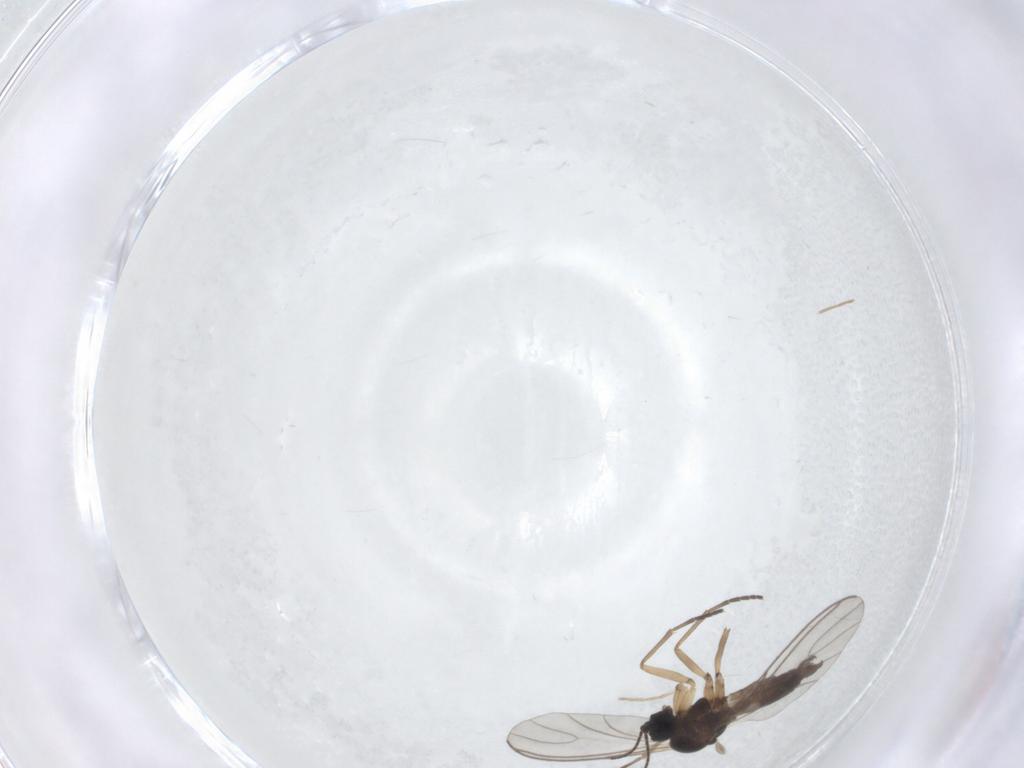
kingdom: Animalia
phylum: Arthropoda
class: Insecta
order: Diptera
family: Chironomidae
